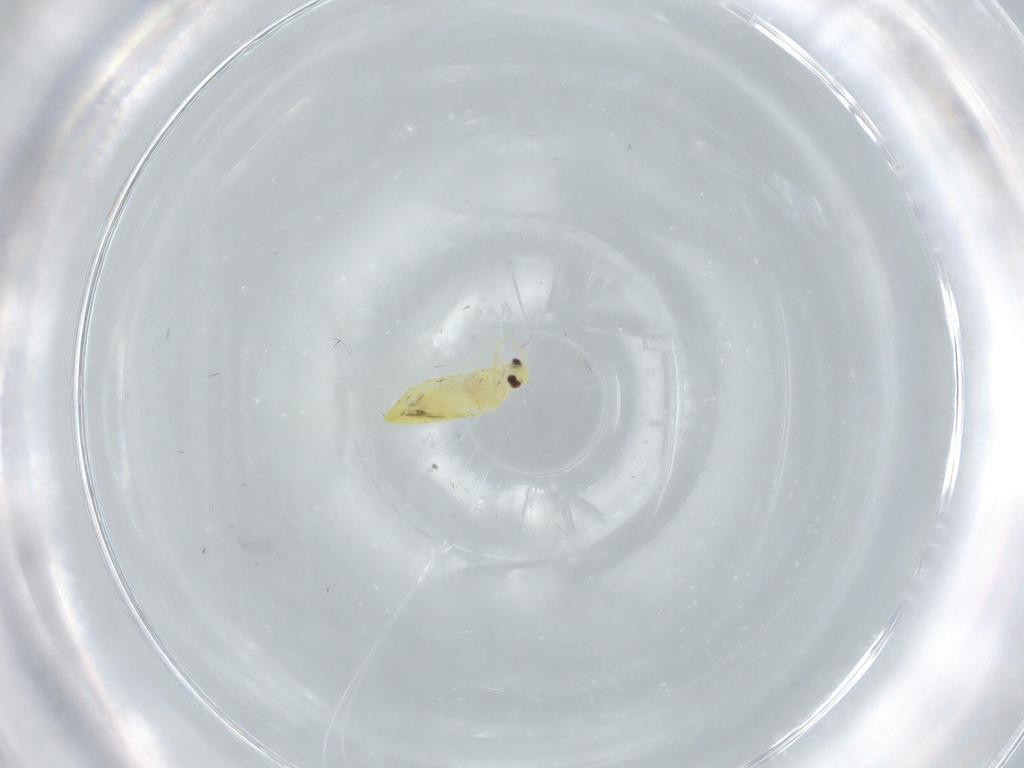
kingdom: Animalia
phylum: Arthropoda
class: Insecta
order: Hemiptera
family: Aleyrodidae
